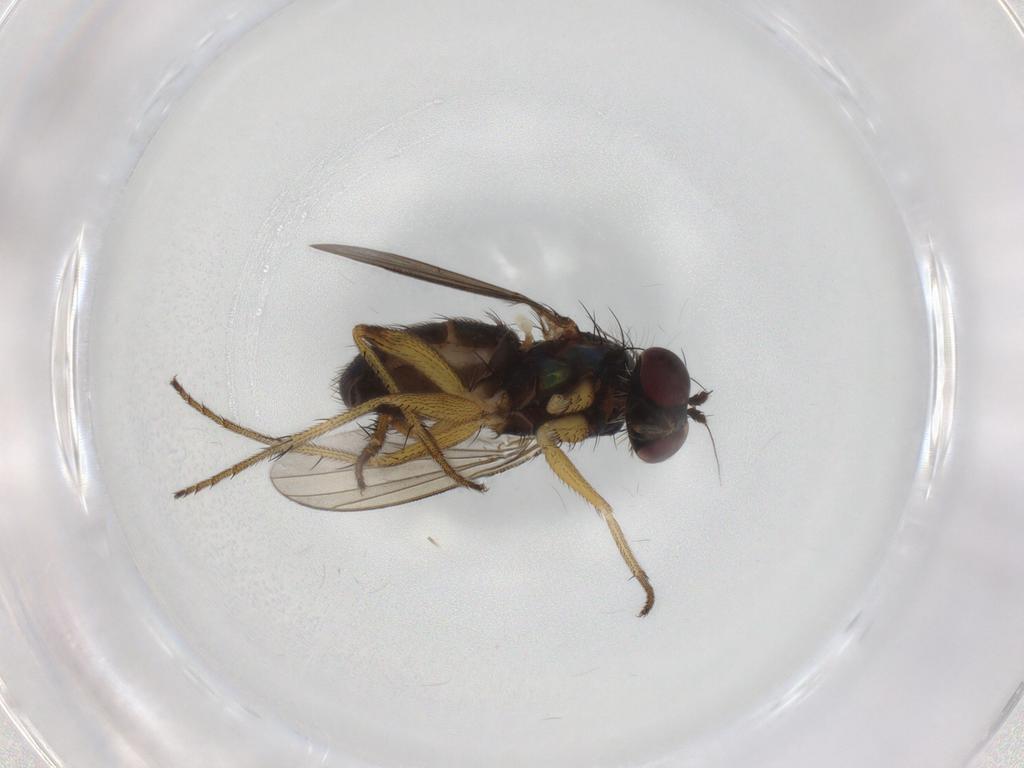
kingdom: Animalia
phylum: Arthropoda
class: Insecta
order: Diptera
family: Dolichopodidae
